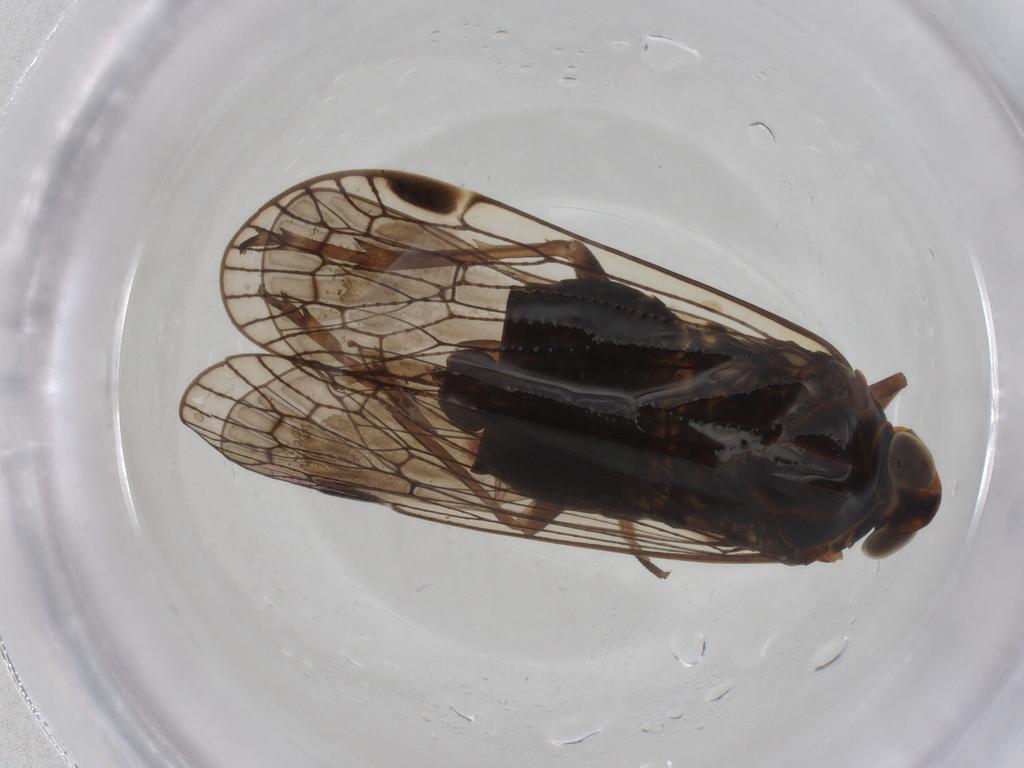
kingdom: Animalia
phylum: Arthropoda
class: Insecta
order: Hemiptera
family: Cixiidae
